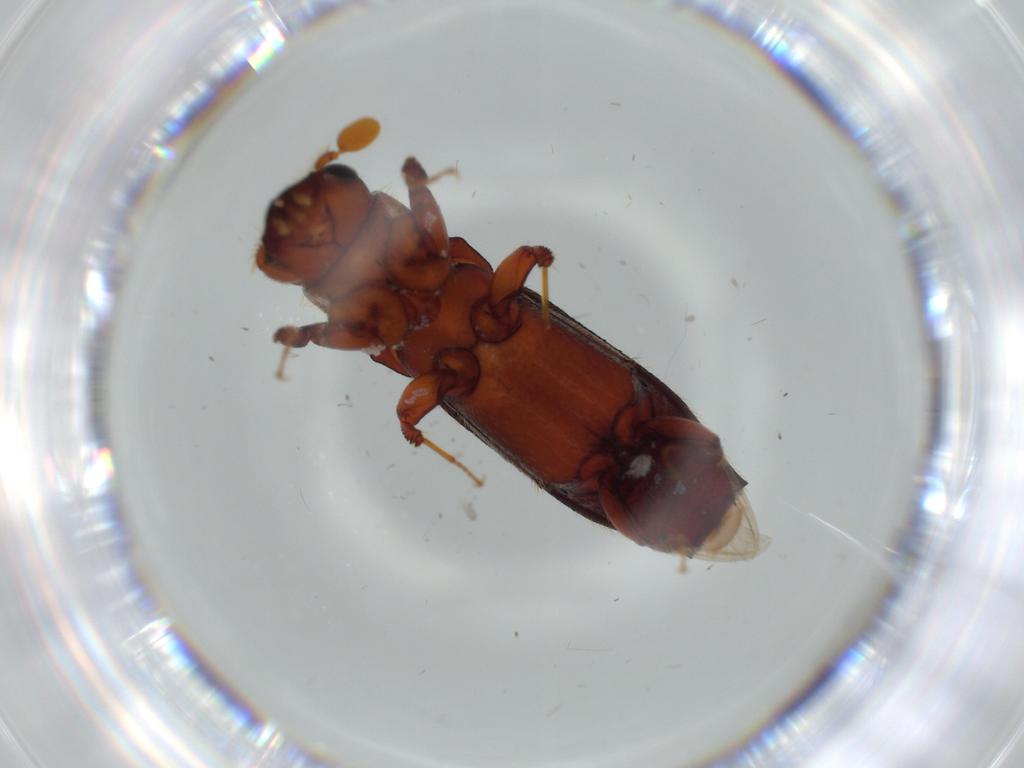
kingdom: Animalia
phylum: Arthropoda
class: Insecta
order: Coleoptera
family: Curculionidae
